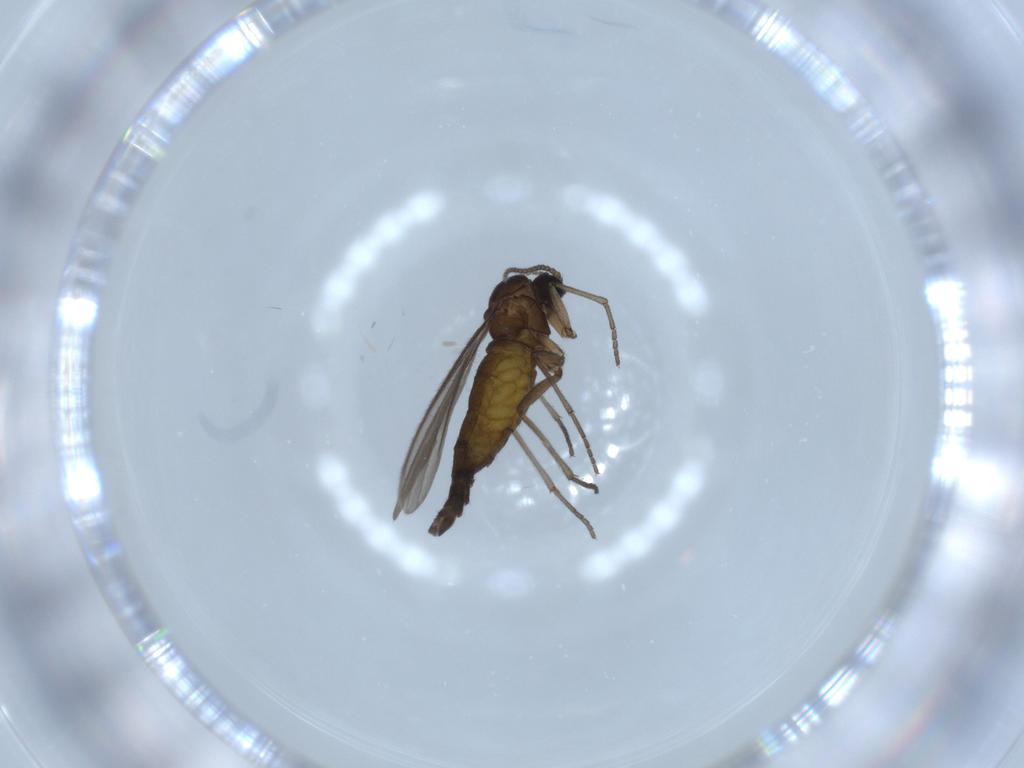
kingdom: Animalia
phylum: Arthropoda
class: Insecta
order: Diptera
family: Sciaridae
